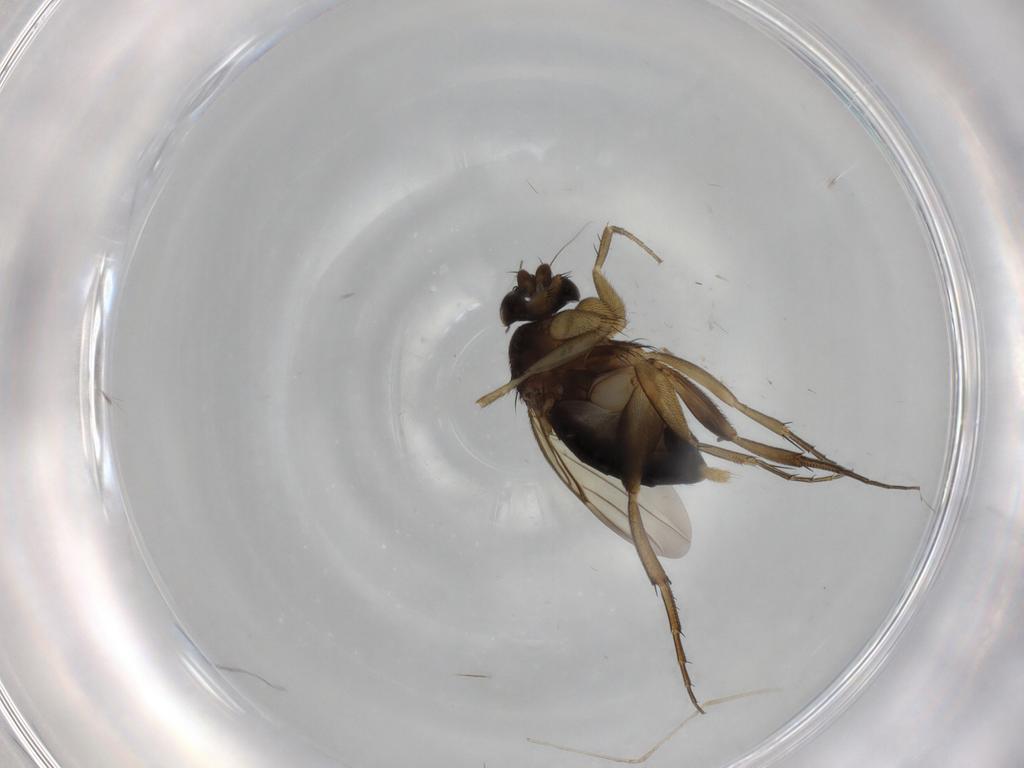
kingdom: Animalia
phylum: Arthropoda
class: Insecta
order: Diptera
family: Phoridae
